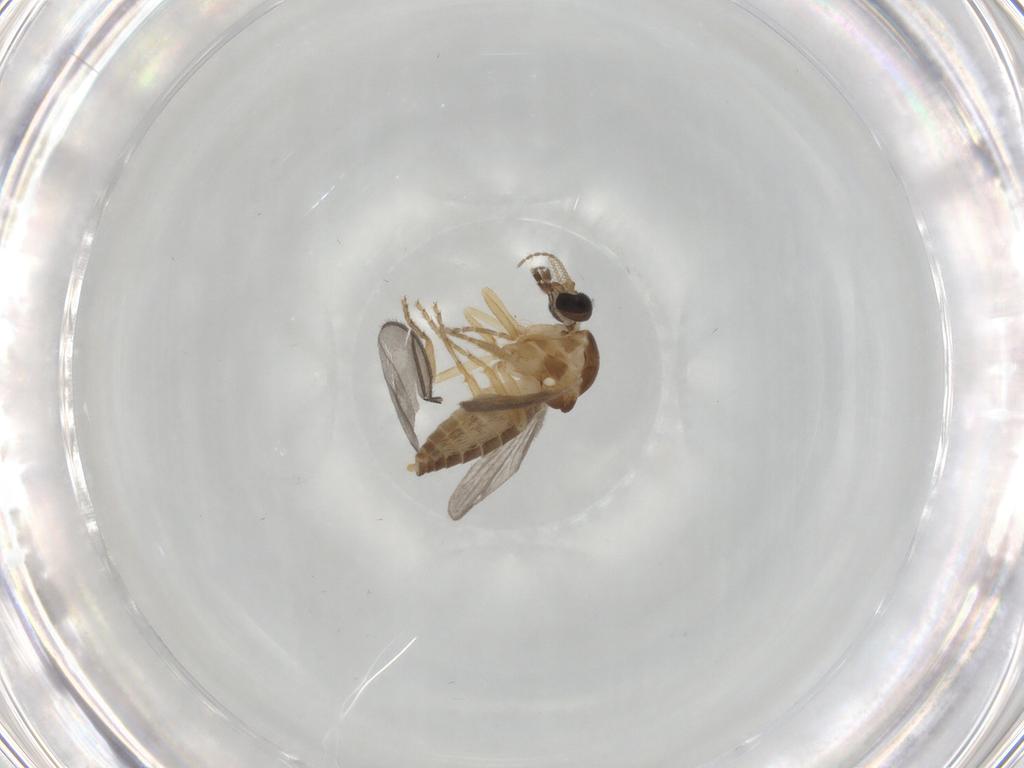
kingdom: Animalia
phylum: Arthropoda
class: Insecta
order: Diptera
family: Ceratopogonidae
